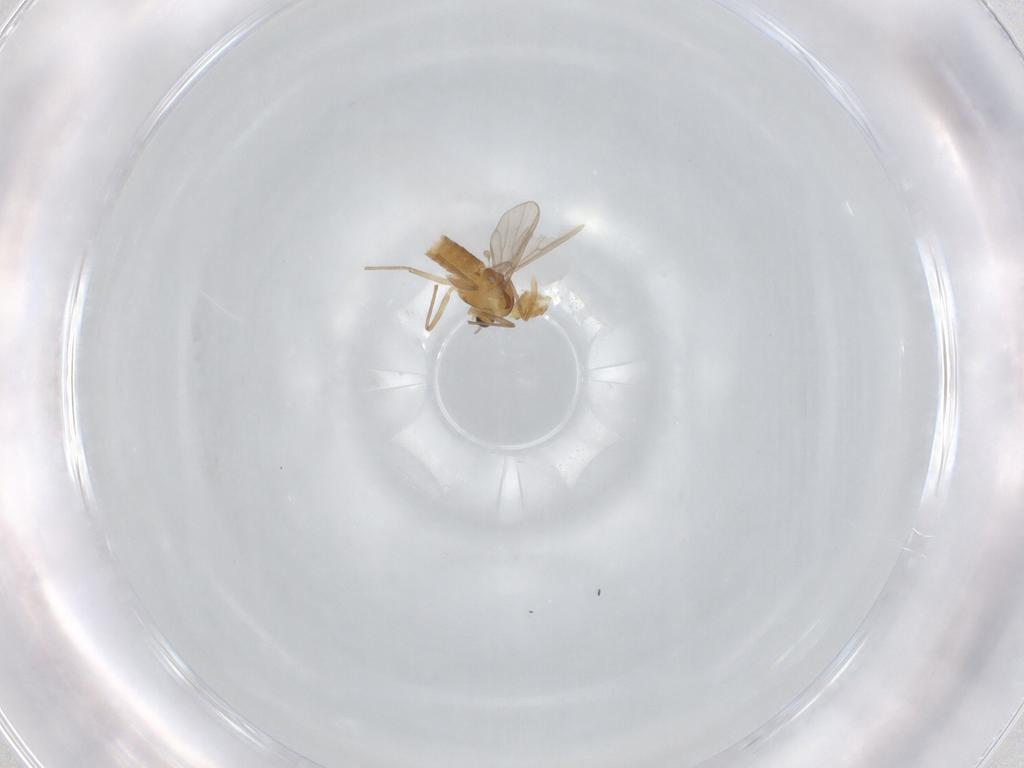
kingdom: Animalia
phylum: Arthropoda
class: Insecta
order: Diptera
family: Chironomidae
